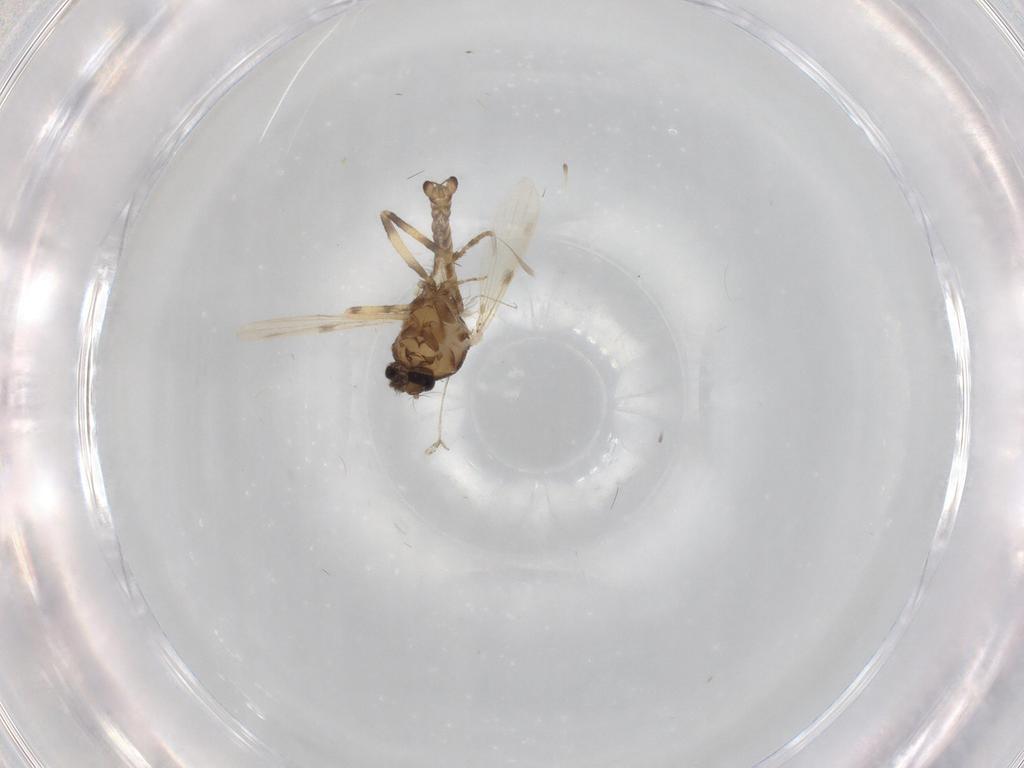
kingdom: Animalia
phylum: Arthropoda
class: Insecta
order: Diptera
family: Ceratopogonidae
